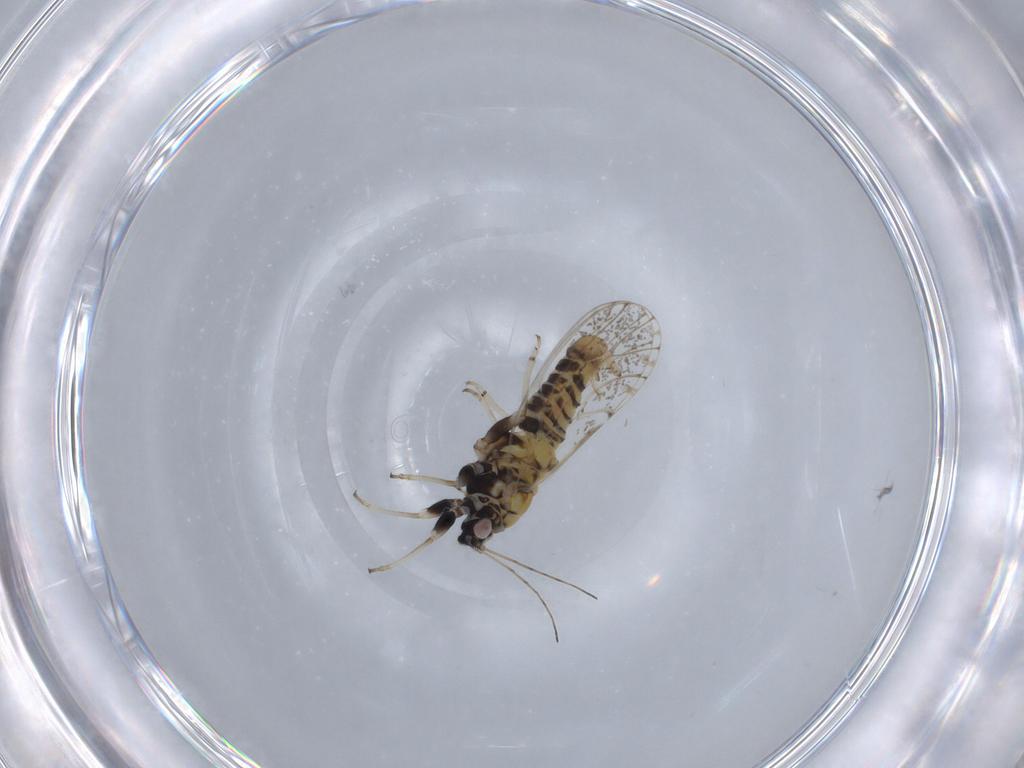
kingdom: Animalia
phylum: Arthropoda
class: Insecta
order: Hemiptera
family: Psyllidae
